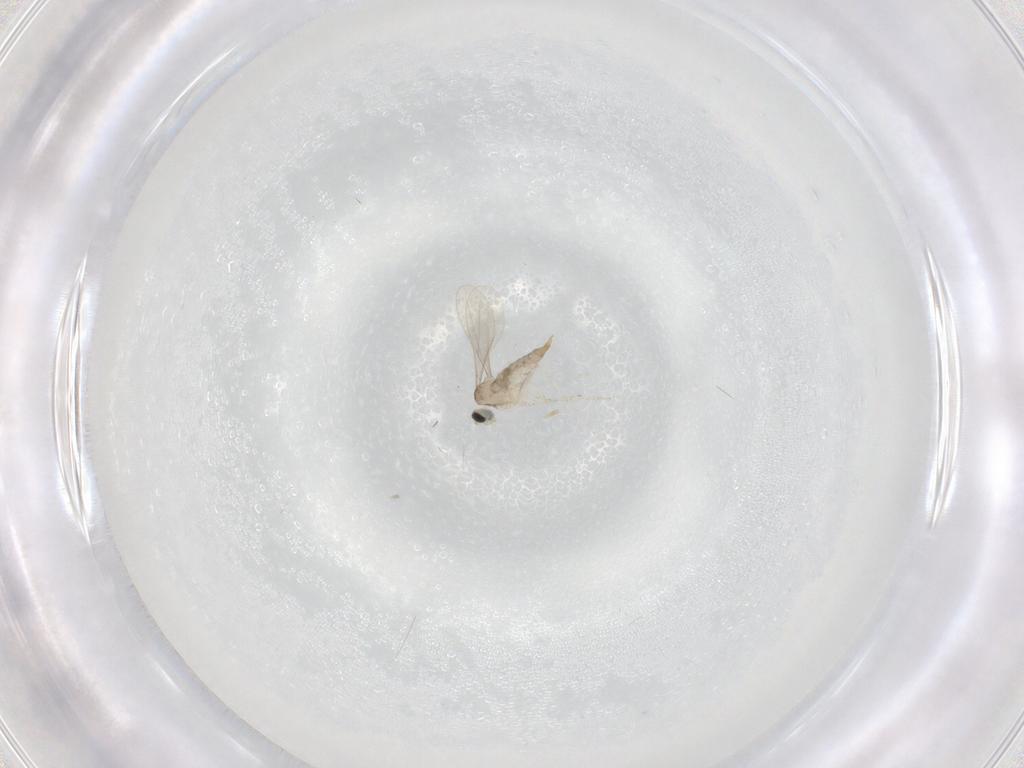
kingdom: Animalia
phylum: Arthropoda
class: Insecta
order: Diptera
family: Cecidomyiidae
